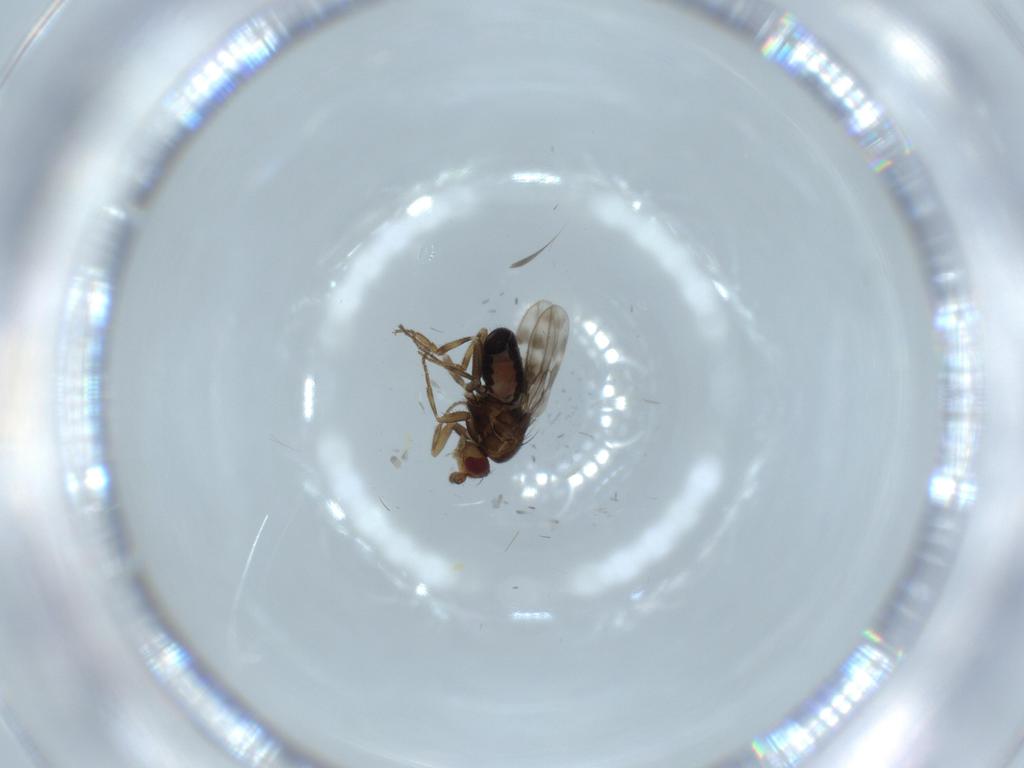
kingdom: Animalia
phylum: Arthropoda
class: Insecta
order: Diptera
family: Sphaeroceridae
